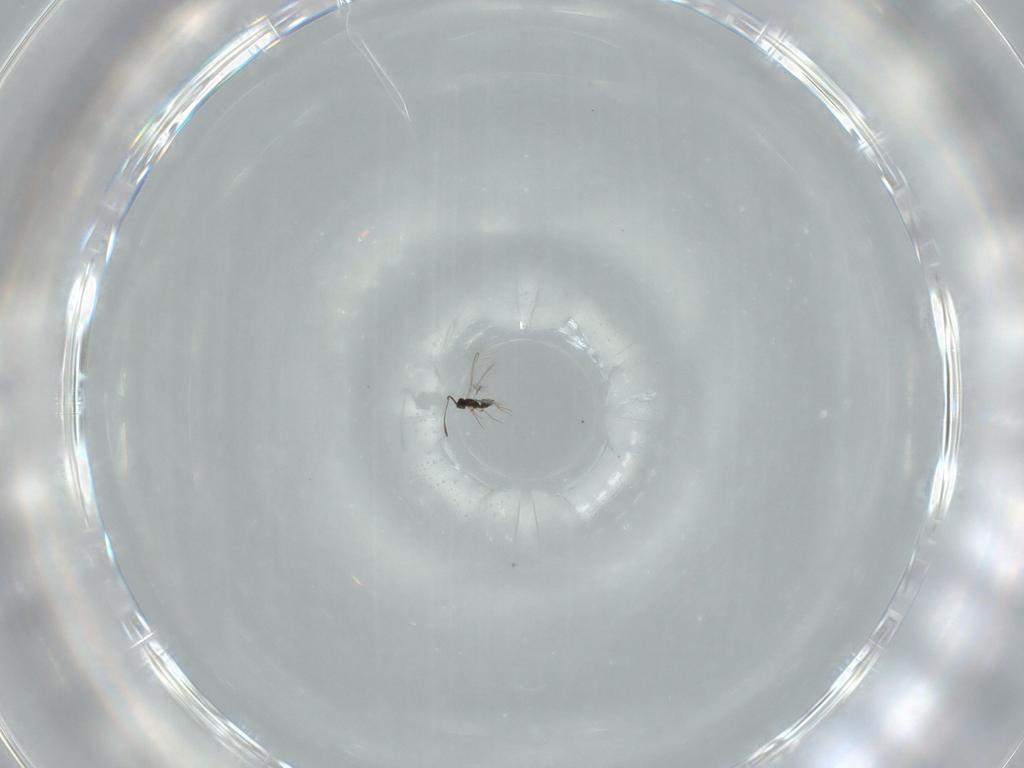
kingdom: Animalia
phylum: Arthropoda
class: Insecta
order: Hymenoptera
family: Mymaridae
